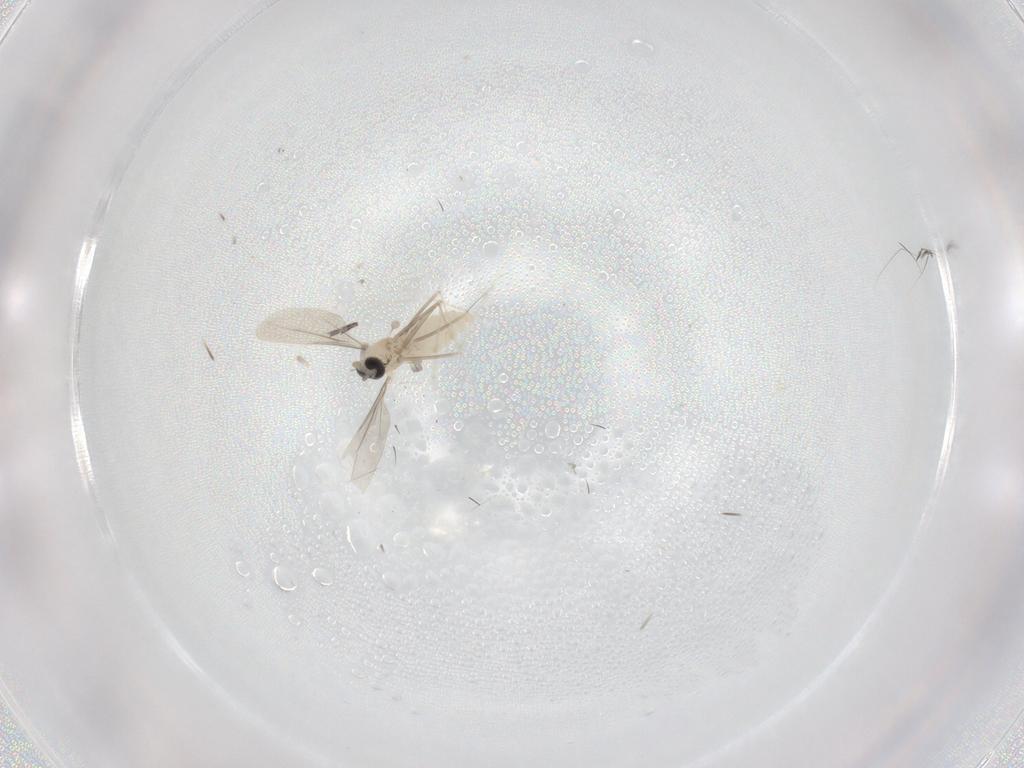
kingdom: Animalia
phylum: Arthropoda
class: Insecta
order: Diptera
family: Cecidomyiidae
